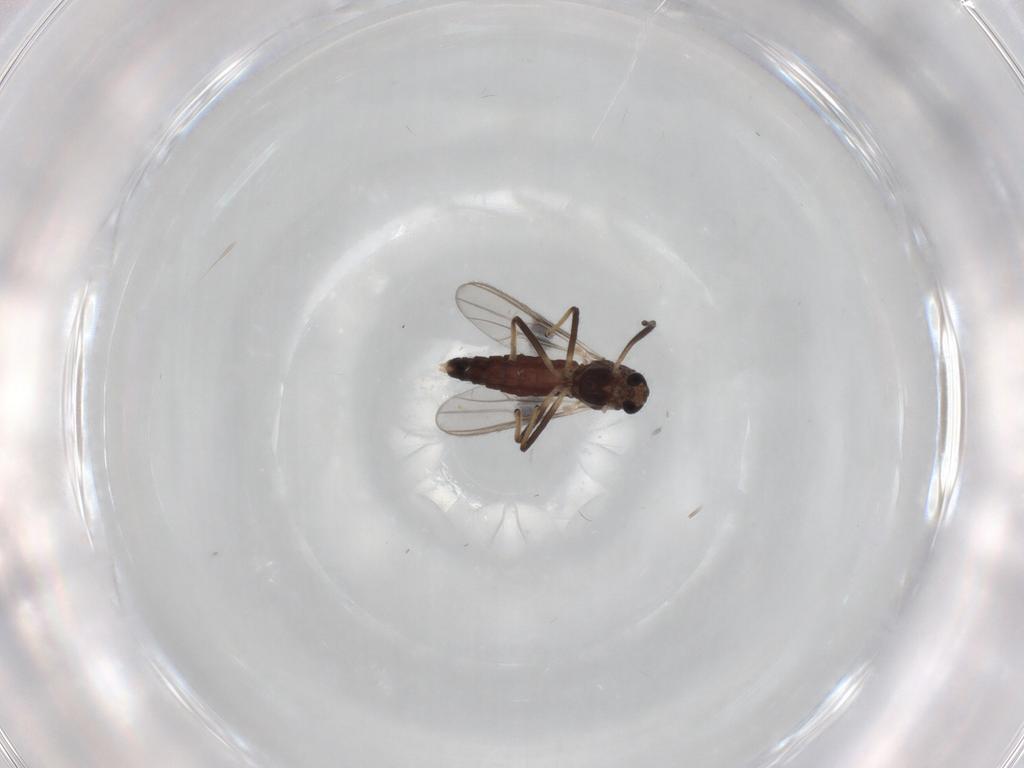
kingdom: Animalia
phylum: Arthropoda
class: Insecta
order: Diptera
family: Chironomidae
